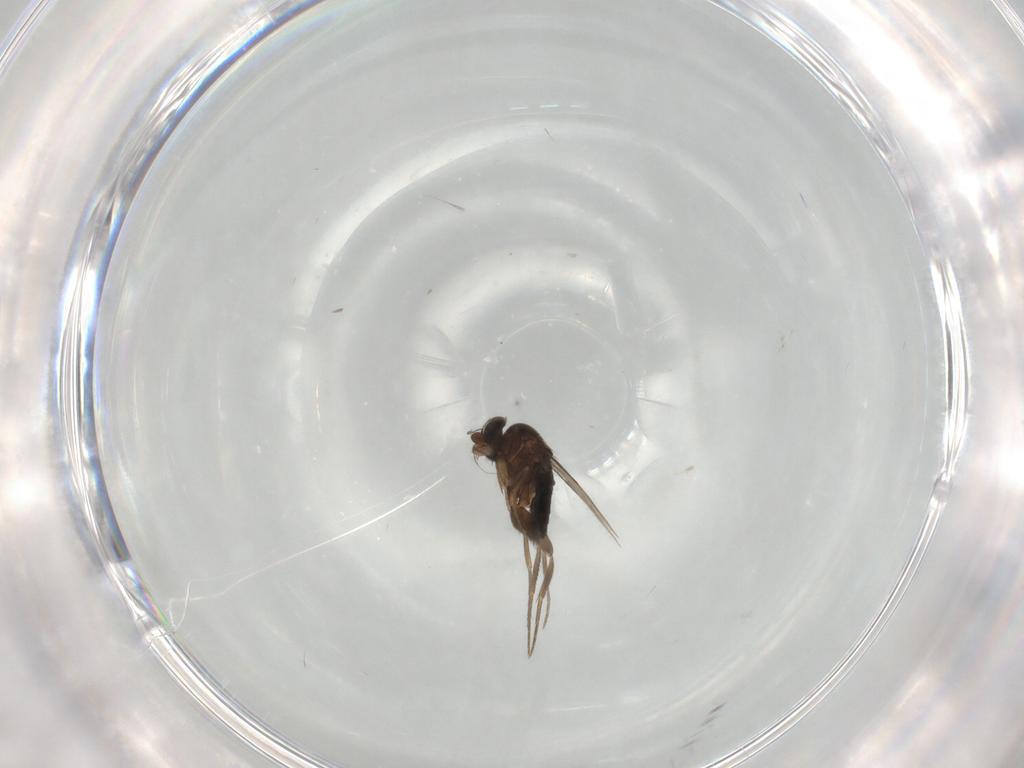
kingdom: Animalia
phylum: Arthropoda
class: Insecta
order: Diptera
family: Phoridae
